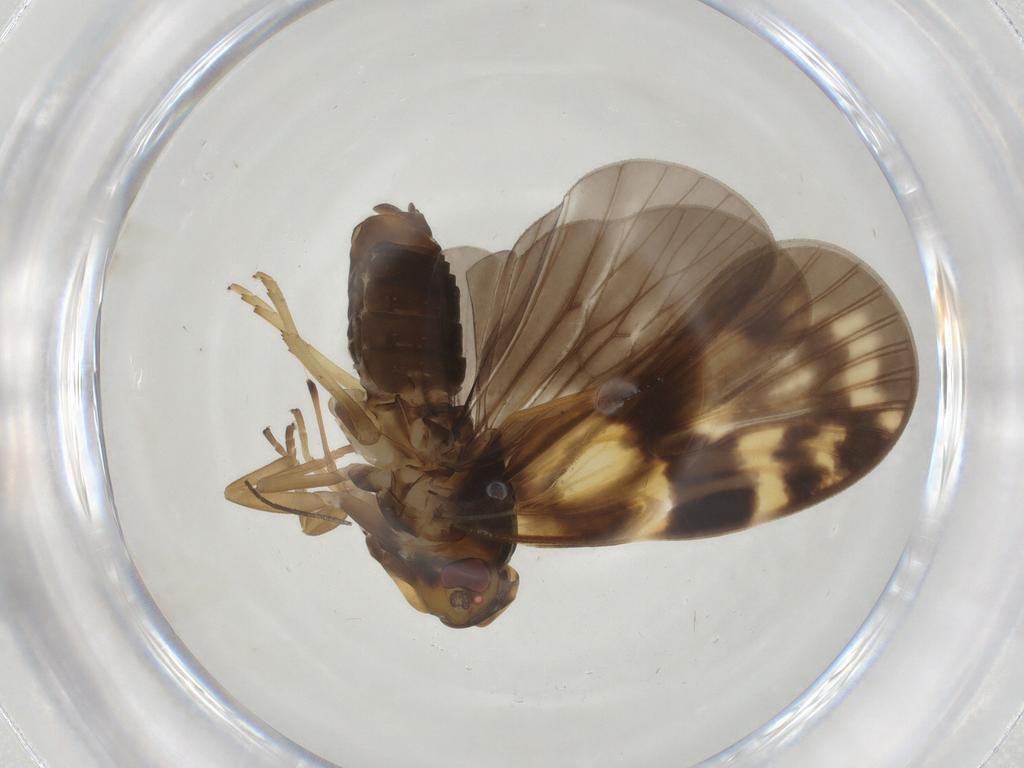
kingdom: Animalia
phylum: Arthropoda
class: Insecta
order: Hemiptera
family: Cixiidae
